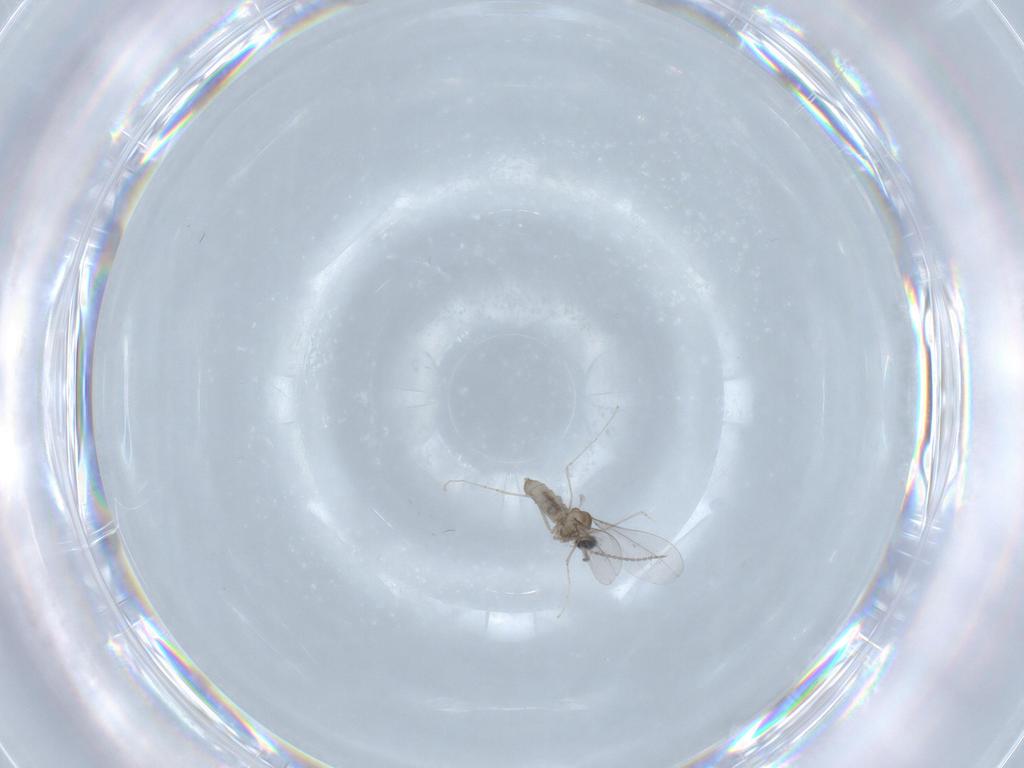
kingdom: Animalia
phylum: Arthropoda
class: Insecta
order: Diptera
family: Cecidomyiidae
